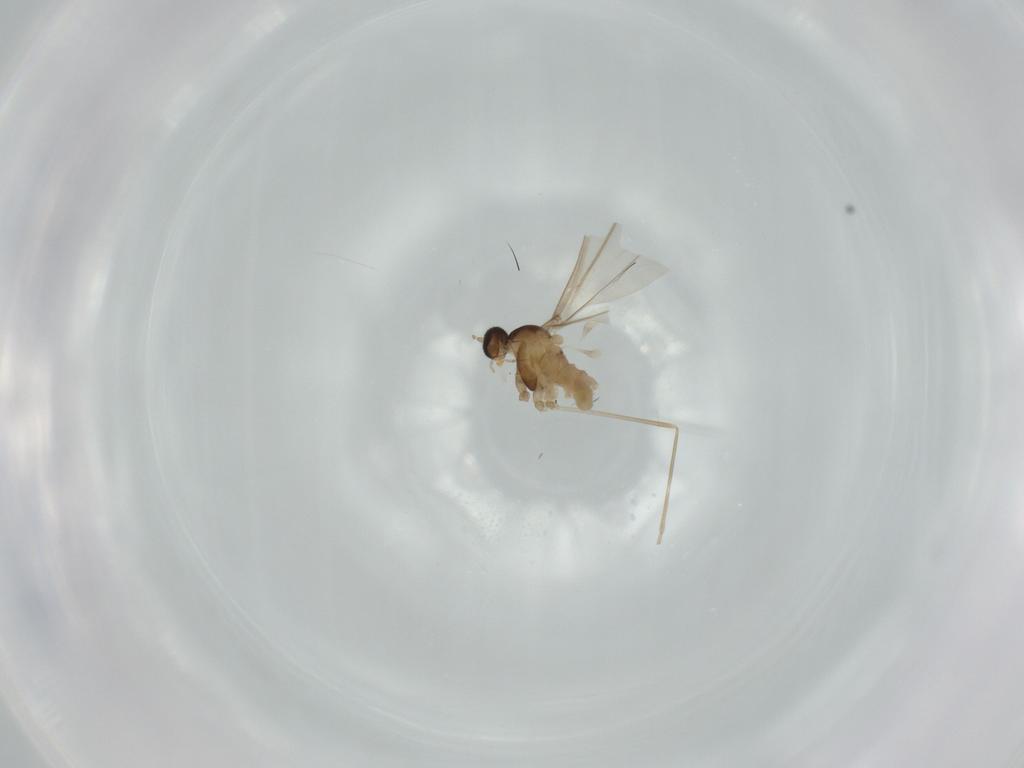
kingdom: Animalia
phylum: Arthropoda
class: Insecta
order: Diptera
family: Cecidomyiidae
